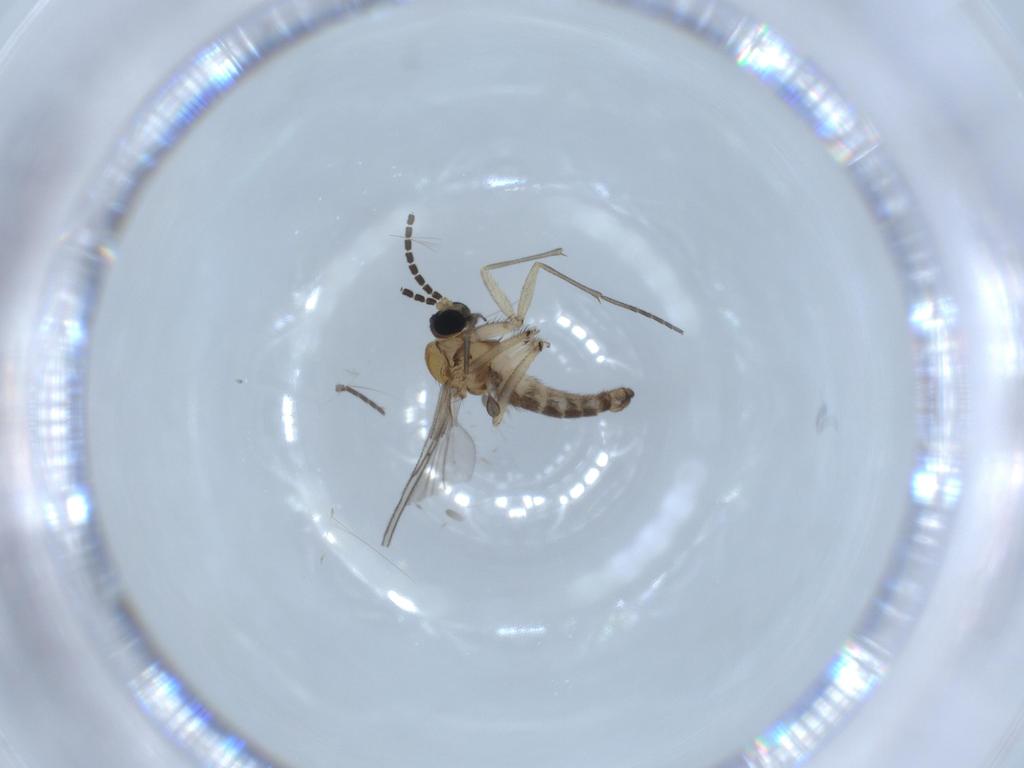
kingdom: Animalia
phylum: Arthropoda
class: Insecta
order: Diptera
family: Sciaridae
